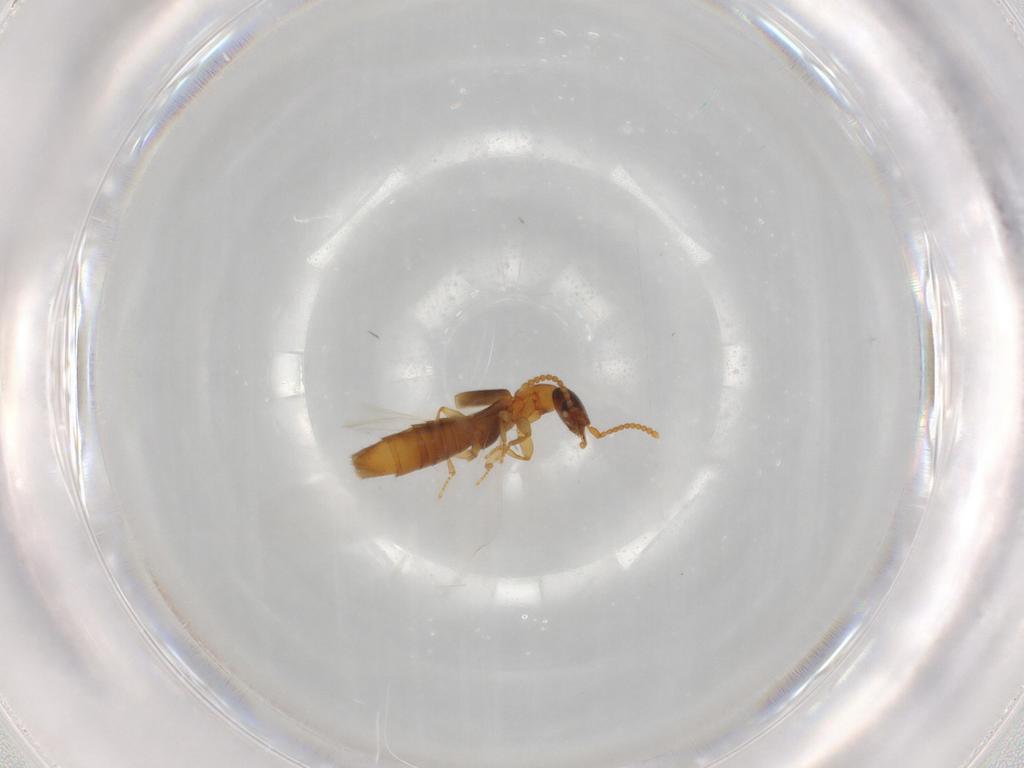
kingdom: Animalia
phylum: Arthropoda
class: Insecta
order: Coleoptera
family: Staphylinidae
